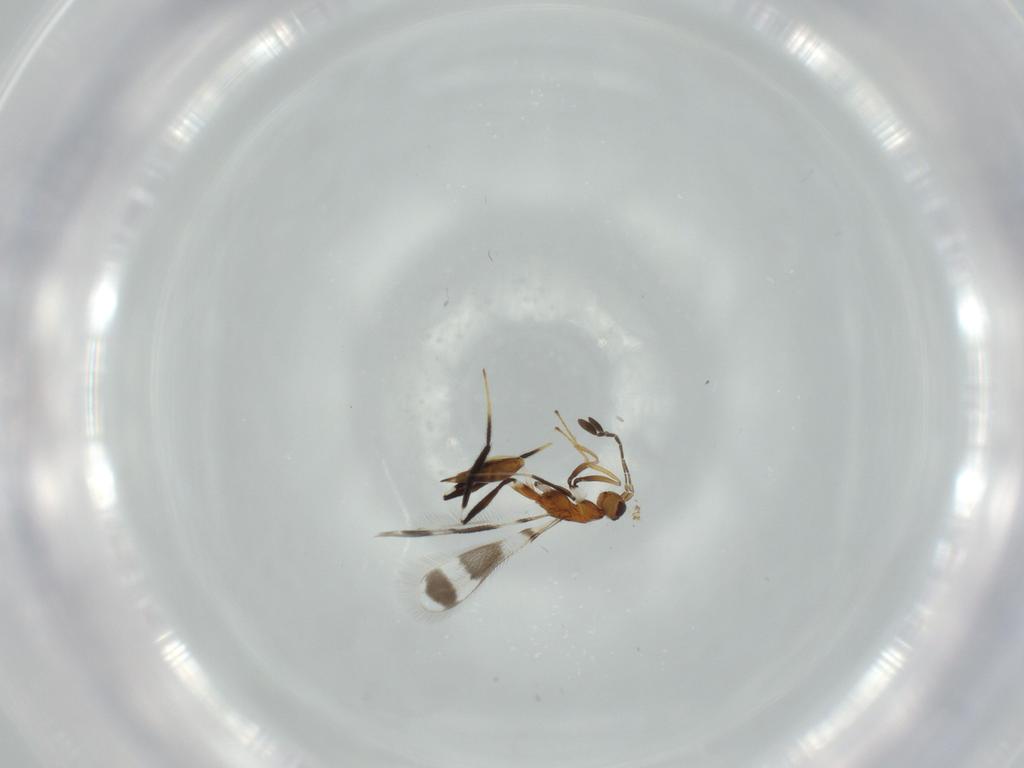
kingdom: Animalia
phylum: Arthropoda
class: Insecta
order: Hymenoptera
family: Mymaridae
